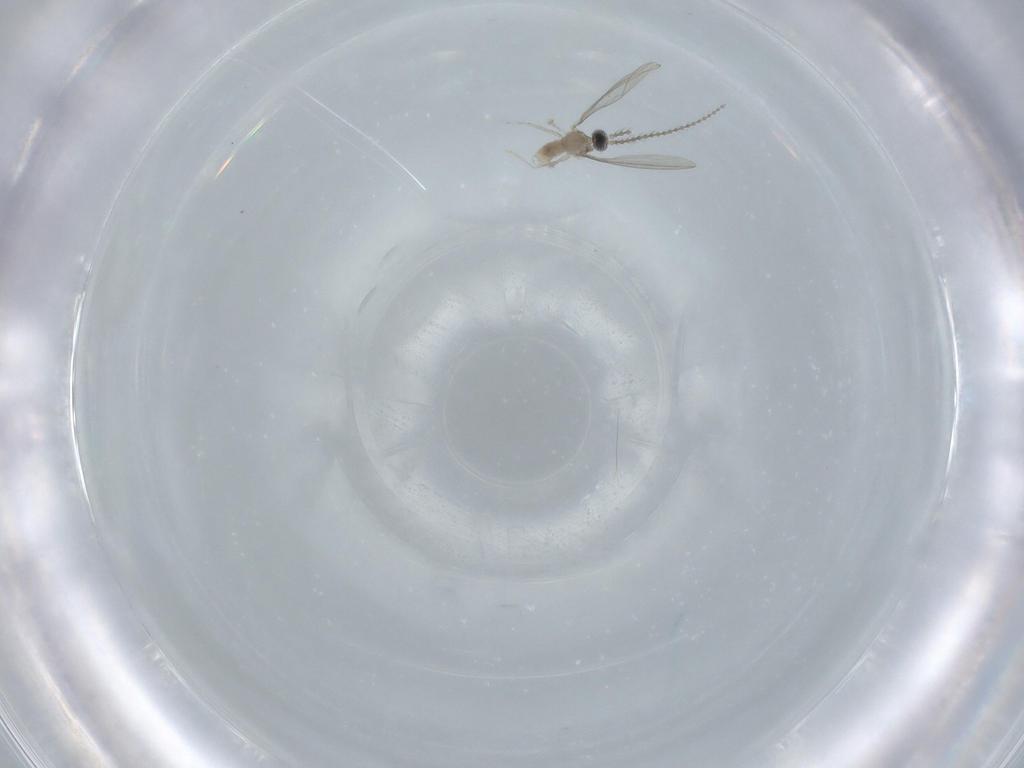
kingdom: Animalia
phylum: Arthropoda
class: Insecta
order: Diptera
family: Cecidomyiidae
